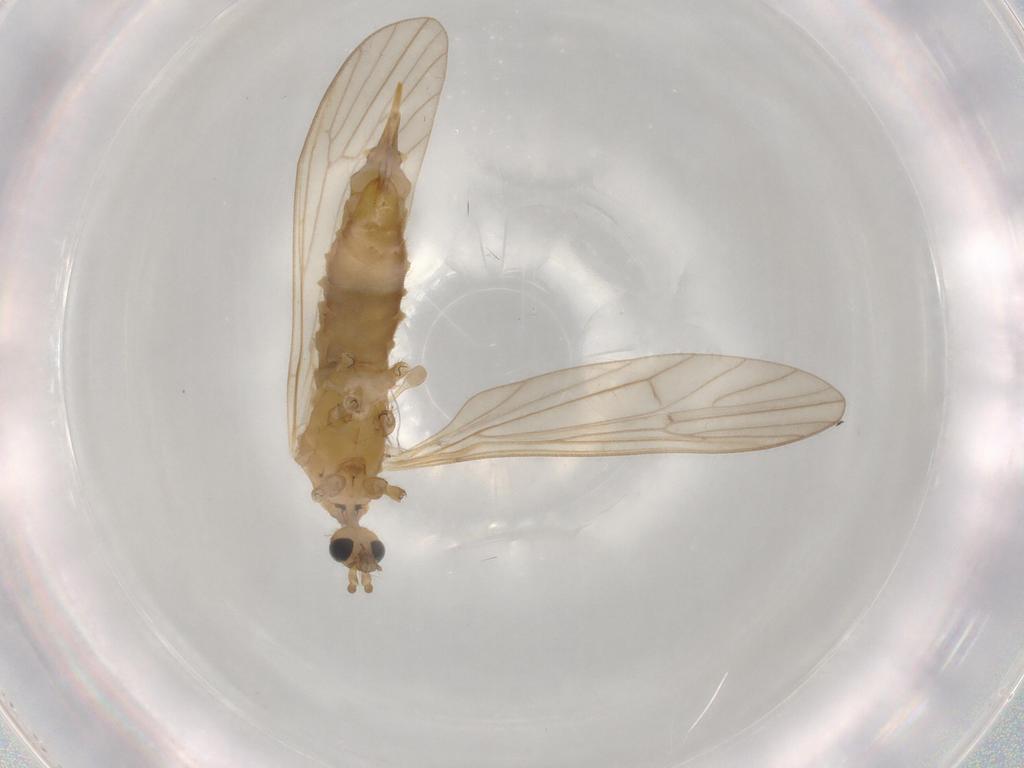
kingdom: Animalia
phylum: Arthropoda
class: Insecta
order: Diptera
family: Limoniidae
